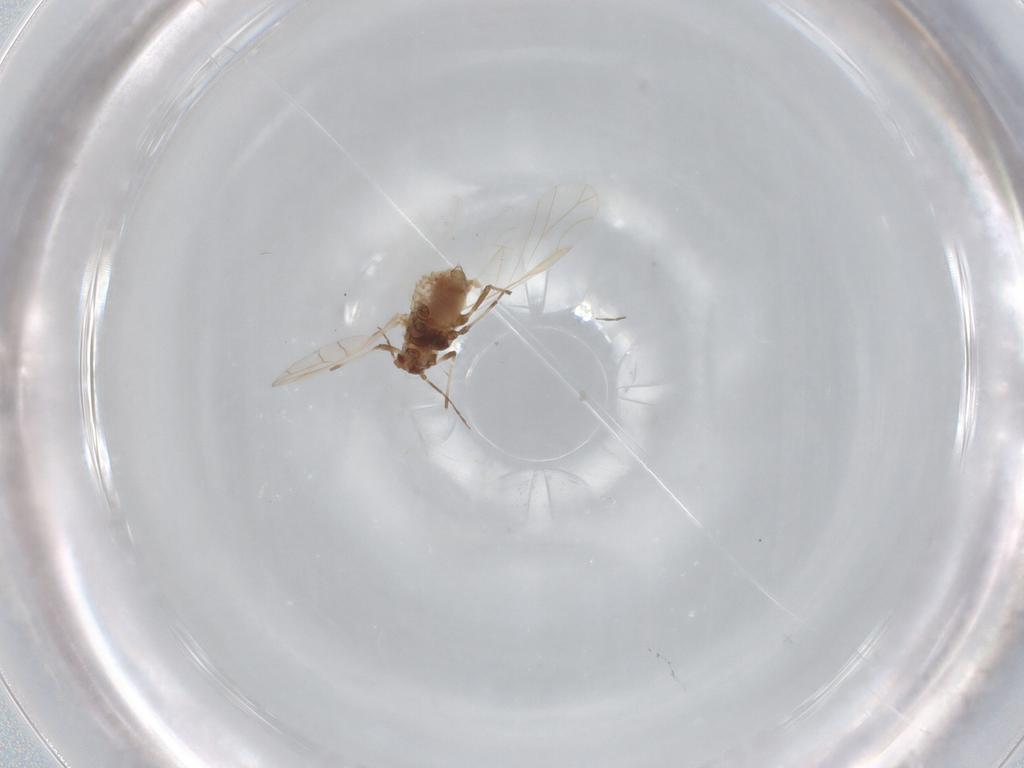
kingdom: Animalia
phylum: Arthropoda
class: Insecta
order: Hemiptera
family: Aphididae
